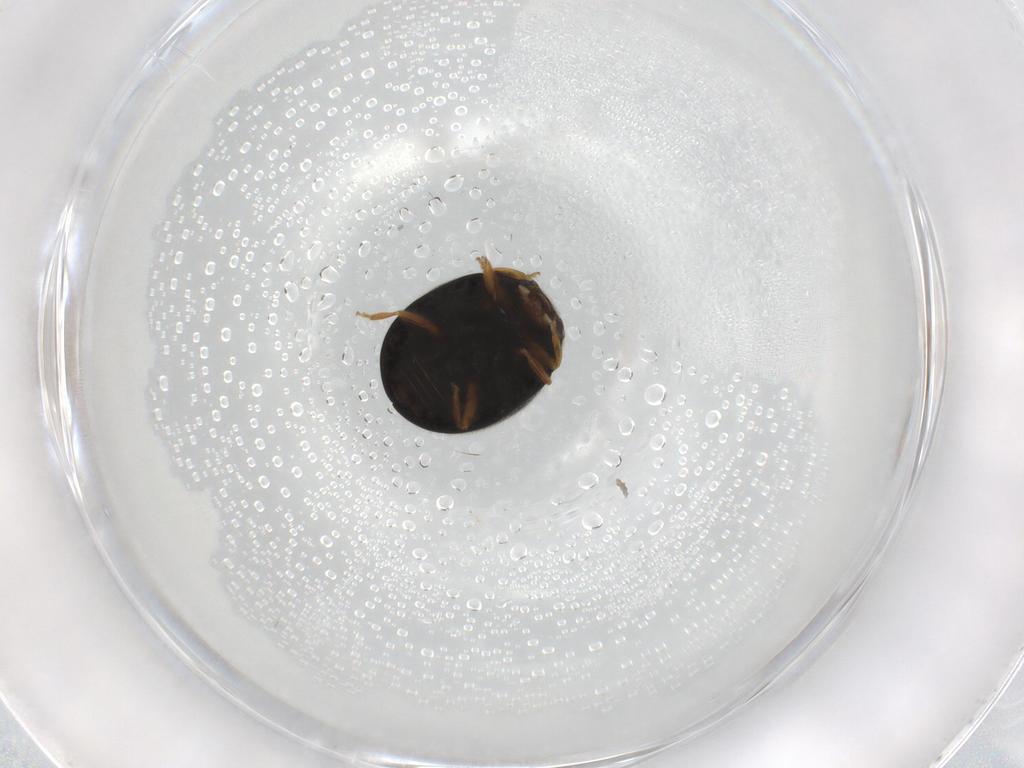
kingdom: Animalia
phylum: Arthropoda
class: Insecta
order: Coleoptera
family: Coccinellidae
